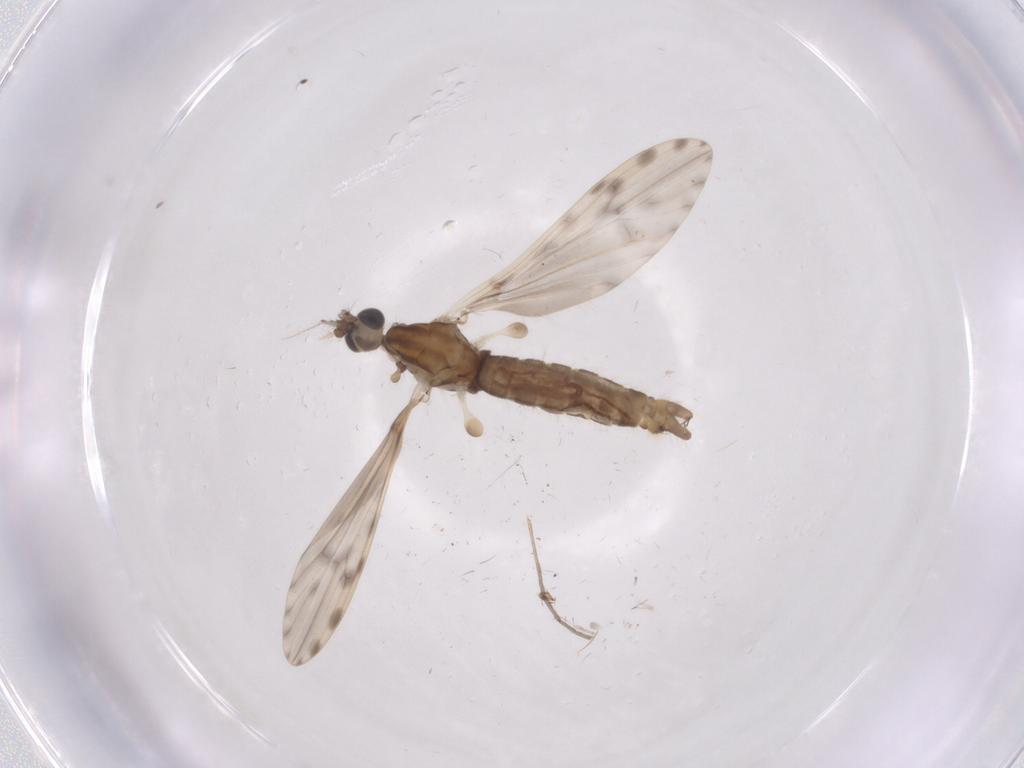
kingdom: Animalia
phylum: Arthropoda
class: Insecta
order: Diptera
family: Limoniidae
